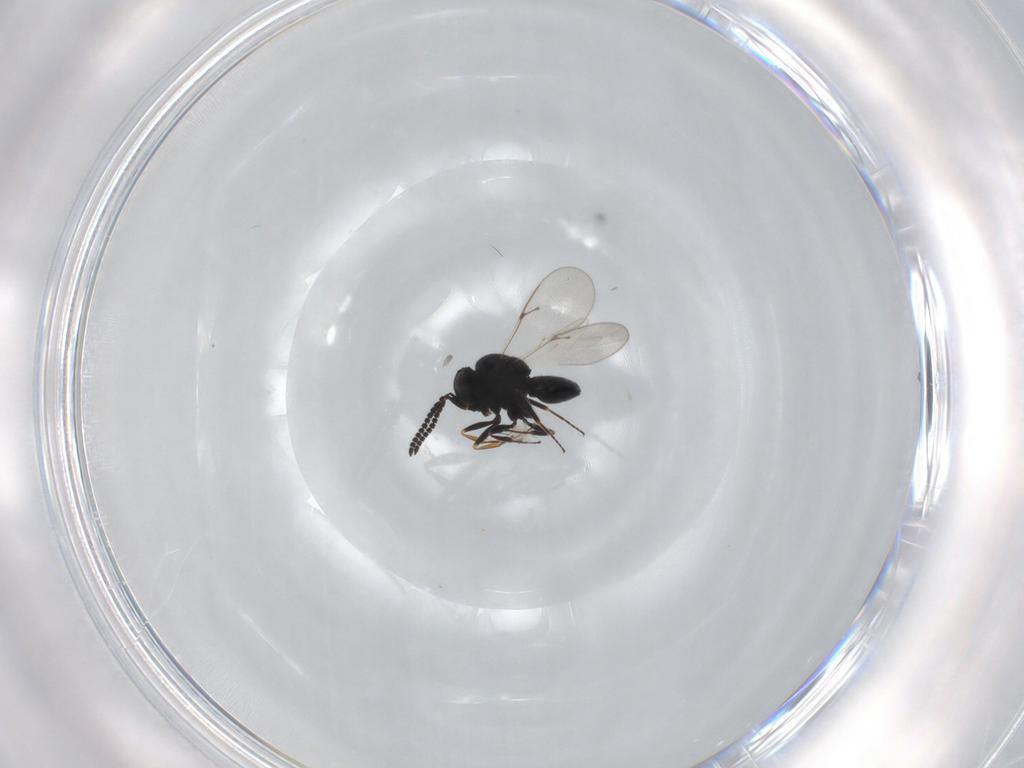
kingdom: Animalia
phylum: Arthropoda
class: Insecta
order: Hymenoptera
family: Scelionidae
